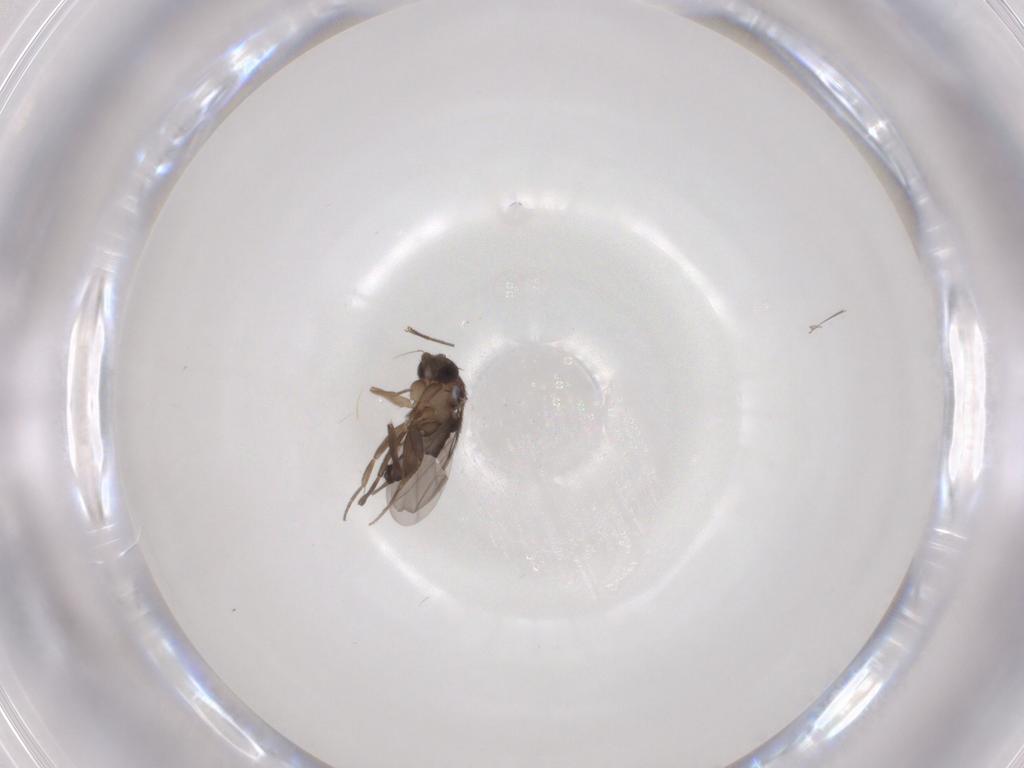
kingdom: Animalia
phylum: Arthropoda
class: Insecta
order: Diptera
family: Phoridae
